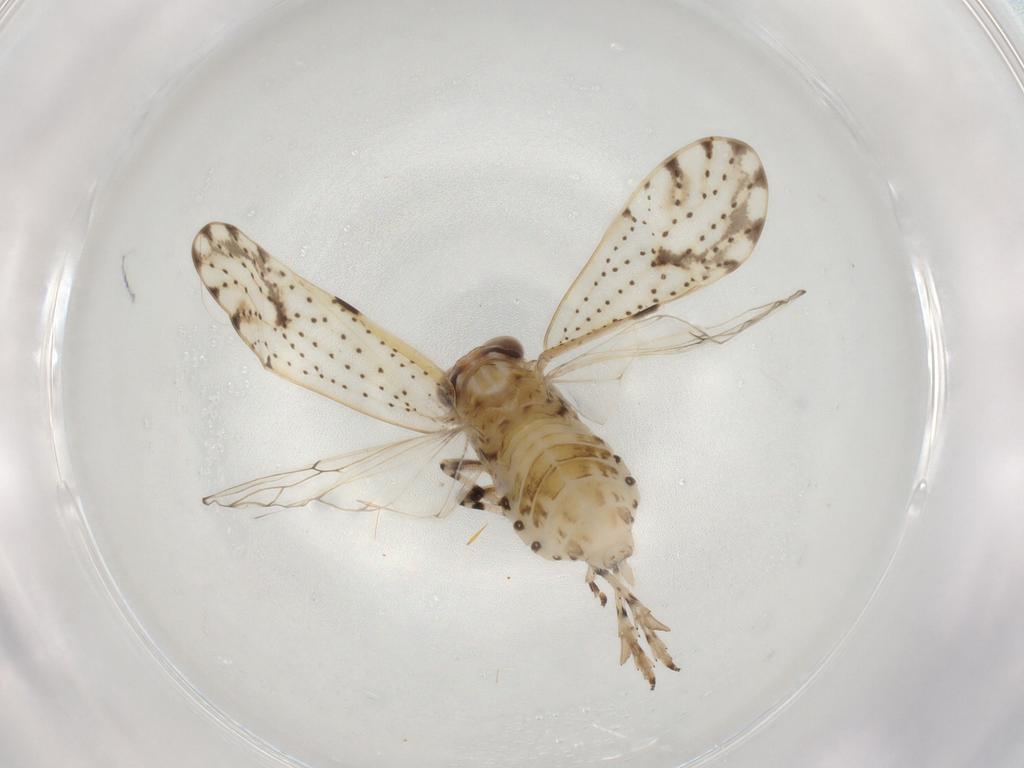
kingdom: Animalia
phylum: Arthropoda
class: Insecta
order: Hemiptera
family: Delphacidae
